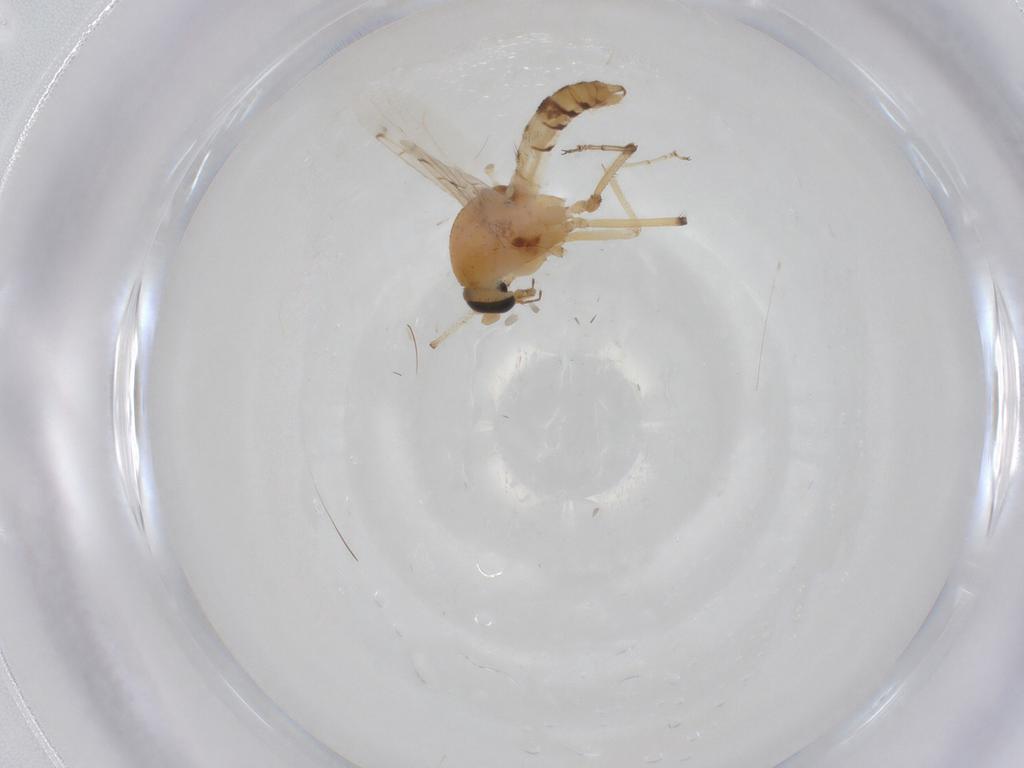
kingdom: Animalia
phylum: Arthropoda
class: Insecta
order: Diptera
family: Ceratopogonidae
